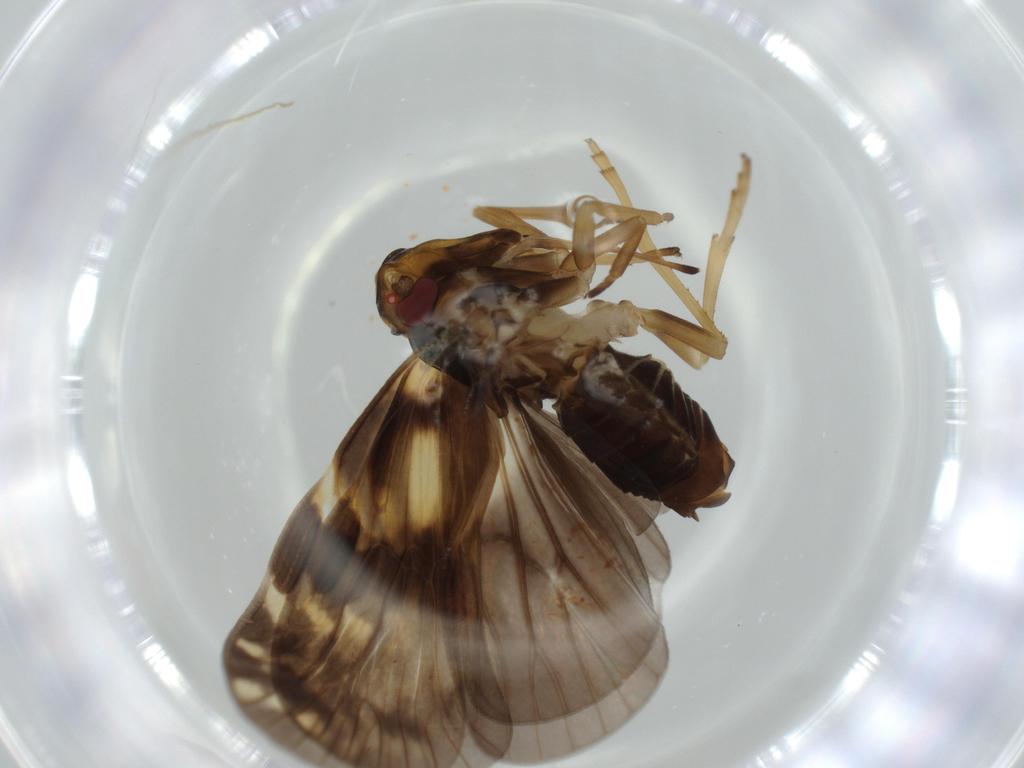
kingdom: Animalia
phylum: Arthropoda
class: Insecta
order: Hemiptera
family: Cixiidae
